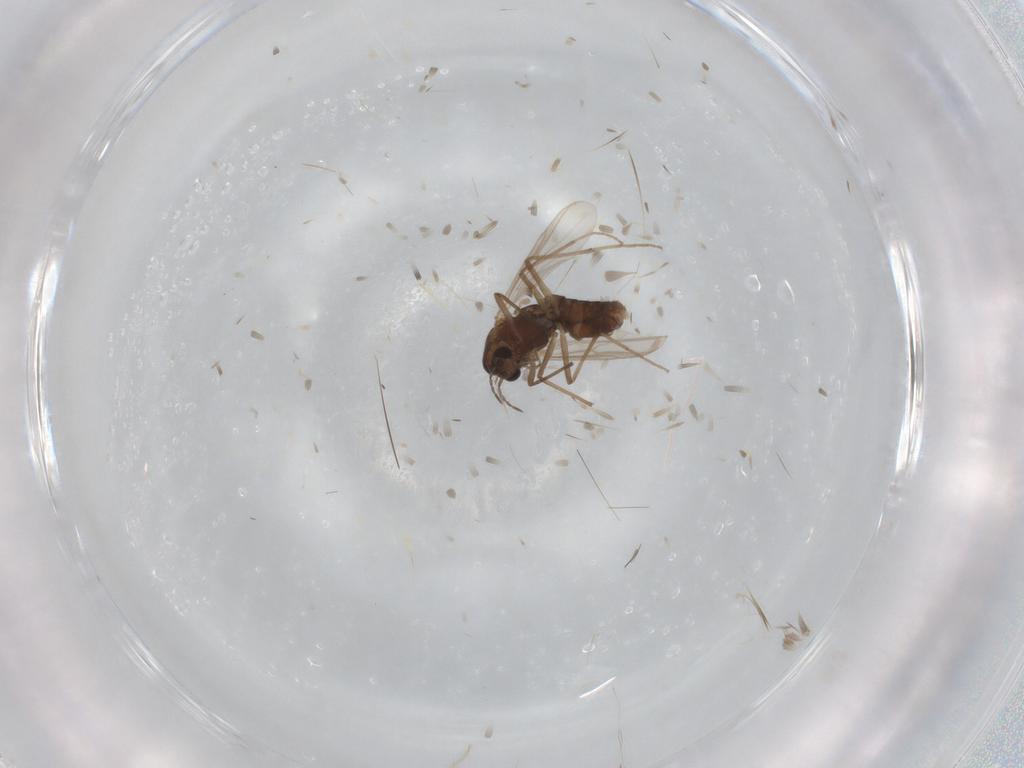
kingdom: Animalia
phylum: Arthropoda
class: Insecta
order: Diptera
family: Chironomidae
